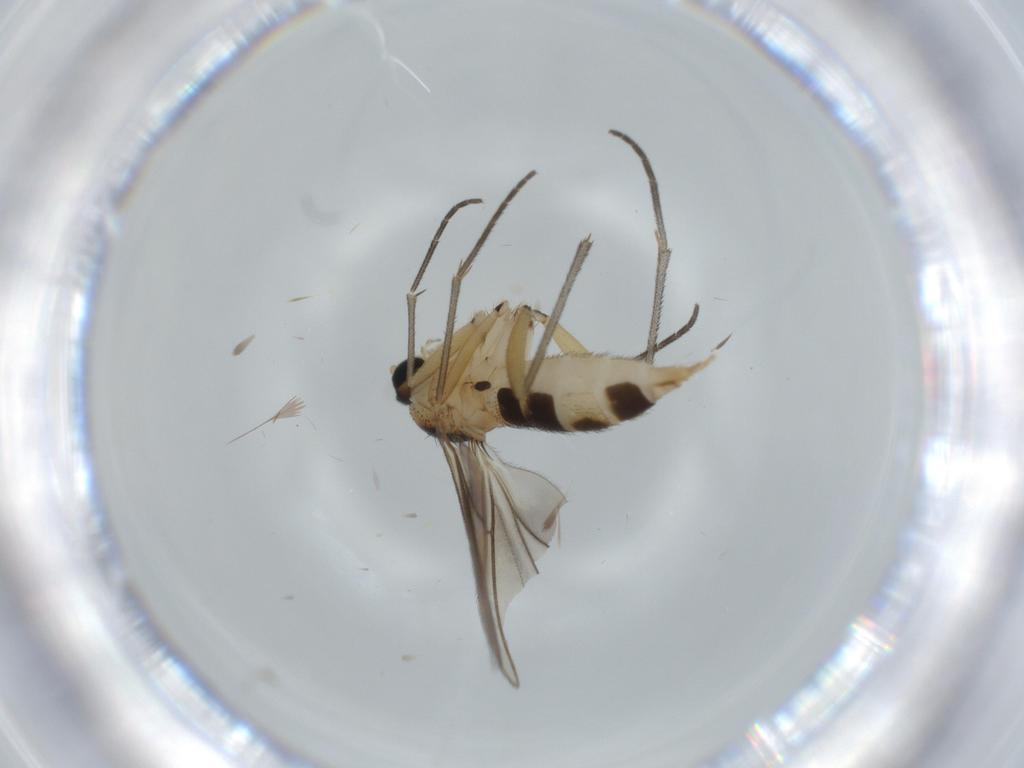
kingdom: Animalia
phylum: Arthropoda
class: Insecta
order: Diptera
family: Sciaridae
